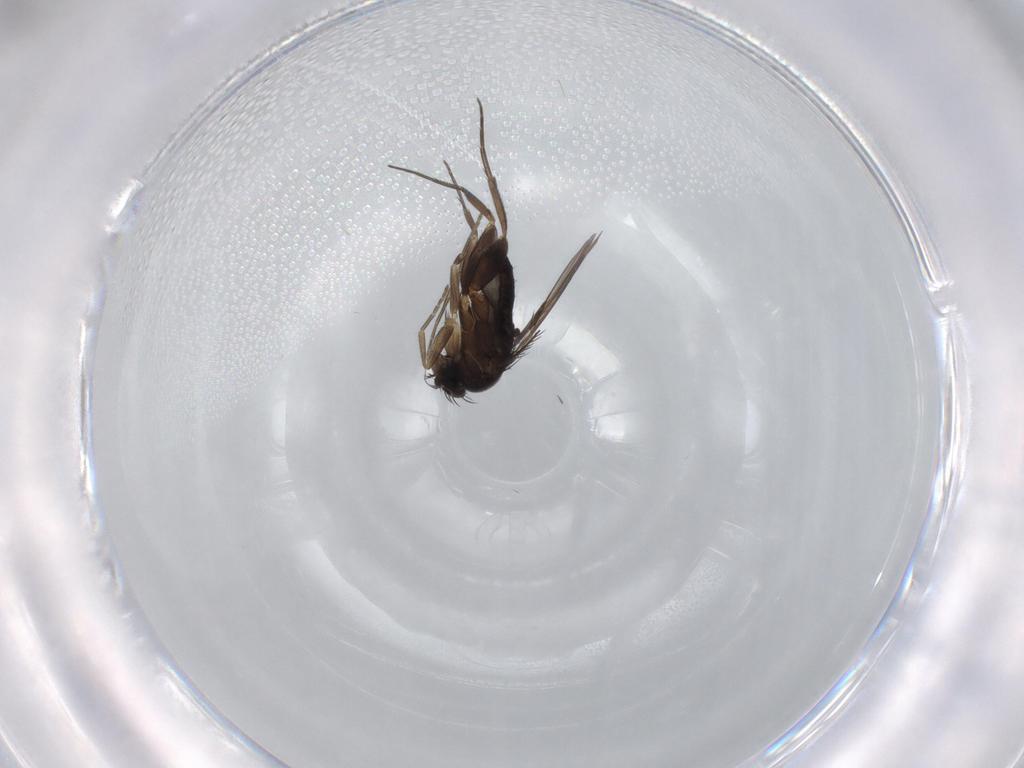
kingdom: Animalia
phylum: Arthropoda
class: Insecta
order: Diptera
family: Phoridae
